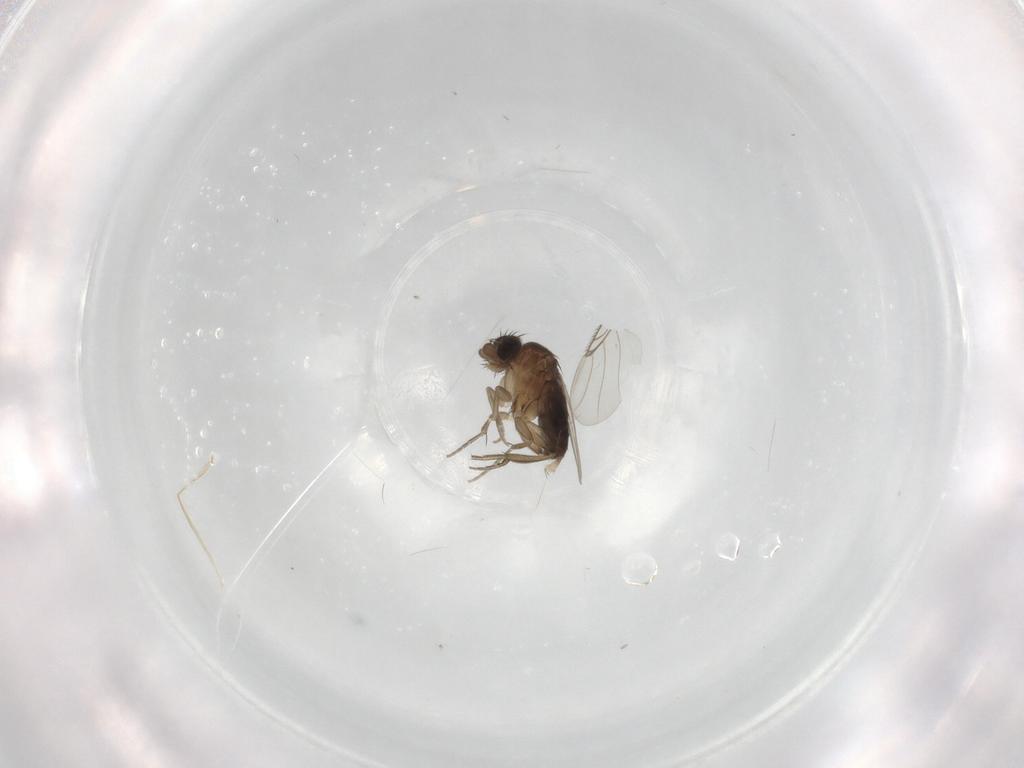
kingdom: Animalia
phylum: Arthropoda
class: Insecta
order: Diptera
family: Phoridae
